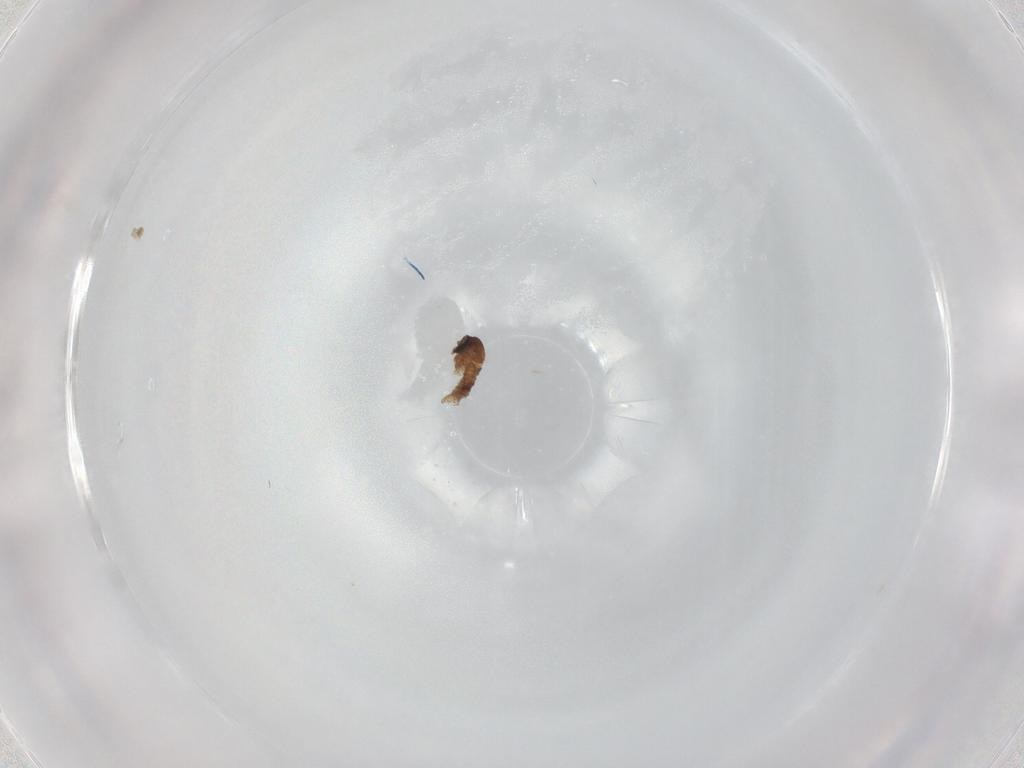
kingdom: Animalia
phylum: Arthropoda
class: Insecta
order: Diptera
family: Psychodidae
